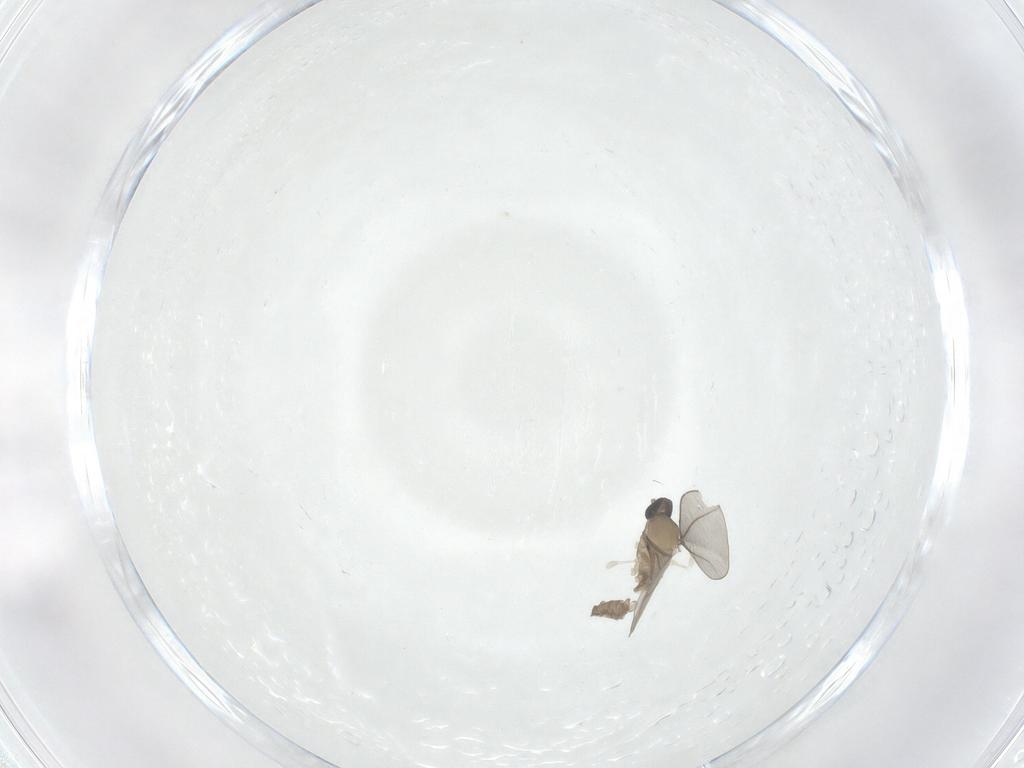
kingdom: Animalia
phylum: Arthropoda
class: Insecta
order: Diptera
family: Cecidomyiidae
